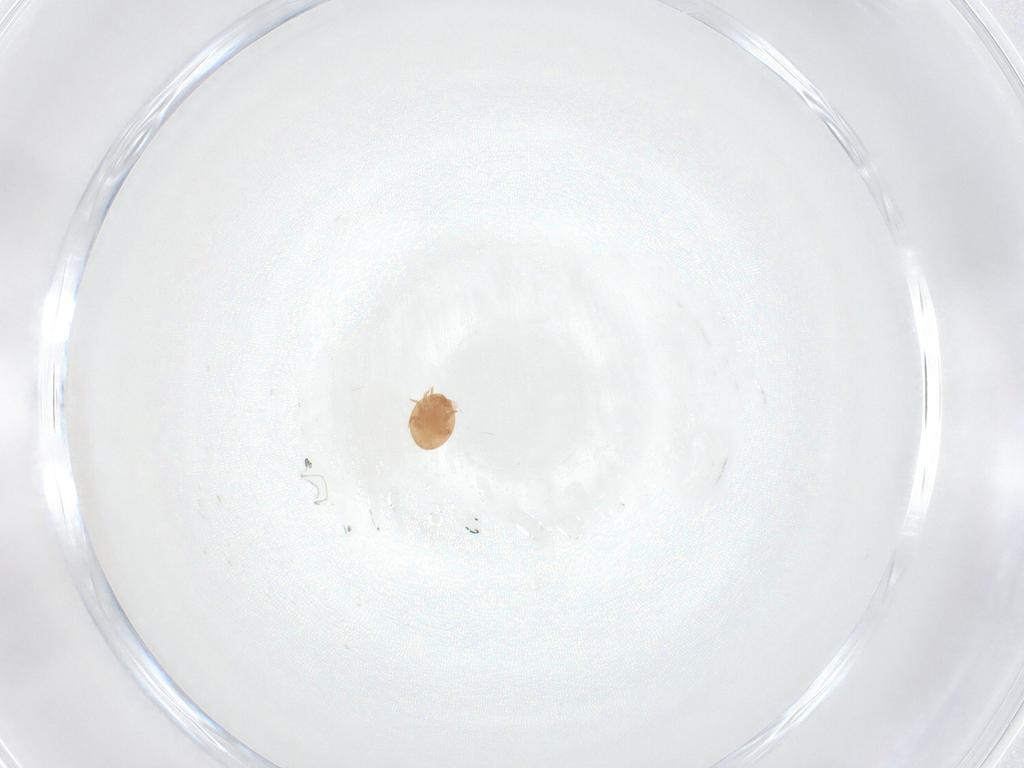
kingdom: Animalia
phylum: Arthropoda
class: Arachnida
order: Mesostigmata
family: Trematuridae
